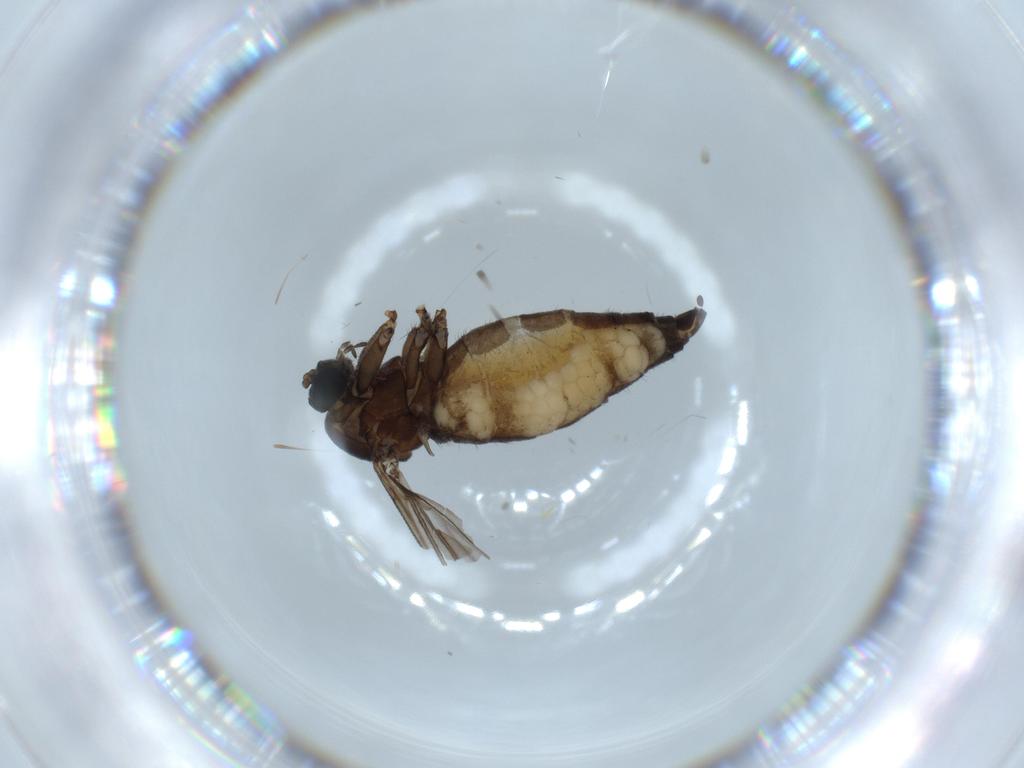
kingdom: Animalia
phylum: Arthropoda
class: Insecta
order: Diptera
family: Sciaridae
